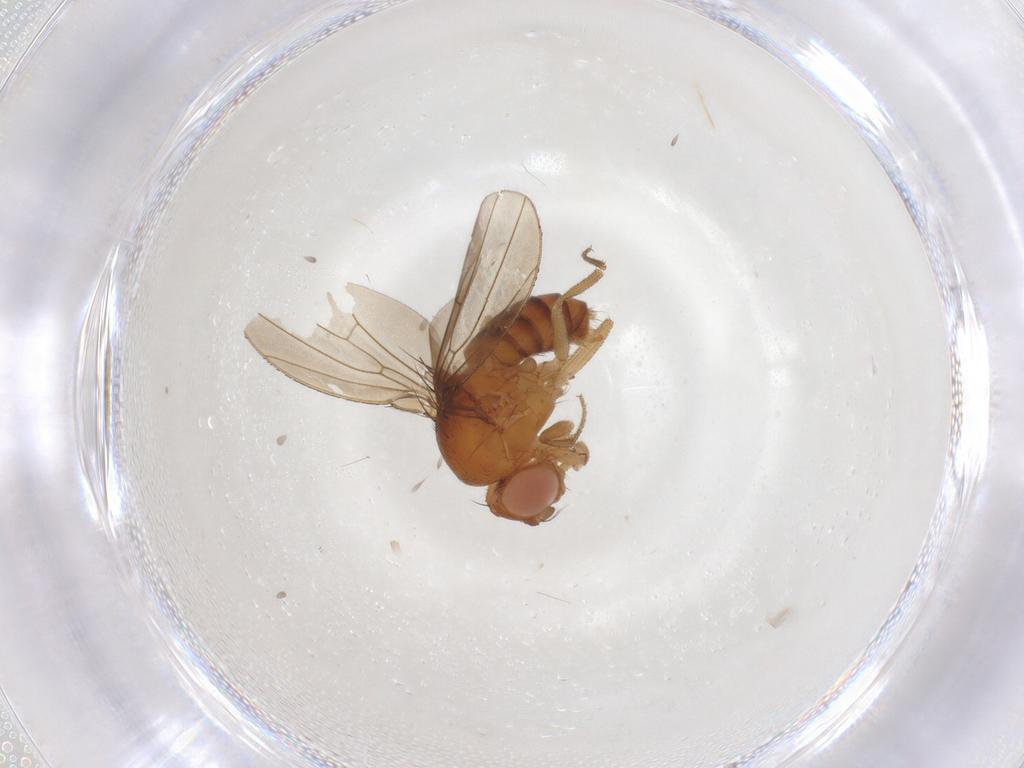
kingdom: Animalia
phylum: Arthropoda
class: Insecta
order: Diptera
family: Drosophilidae
